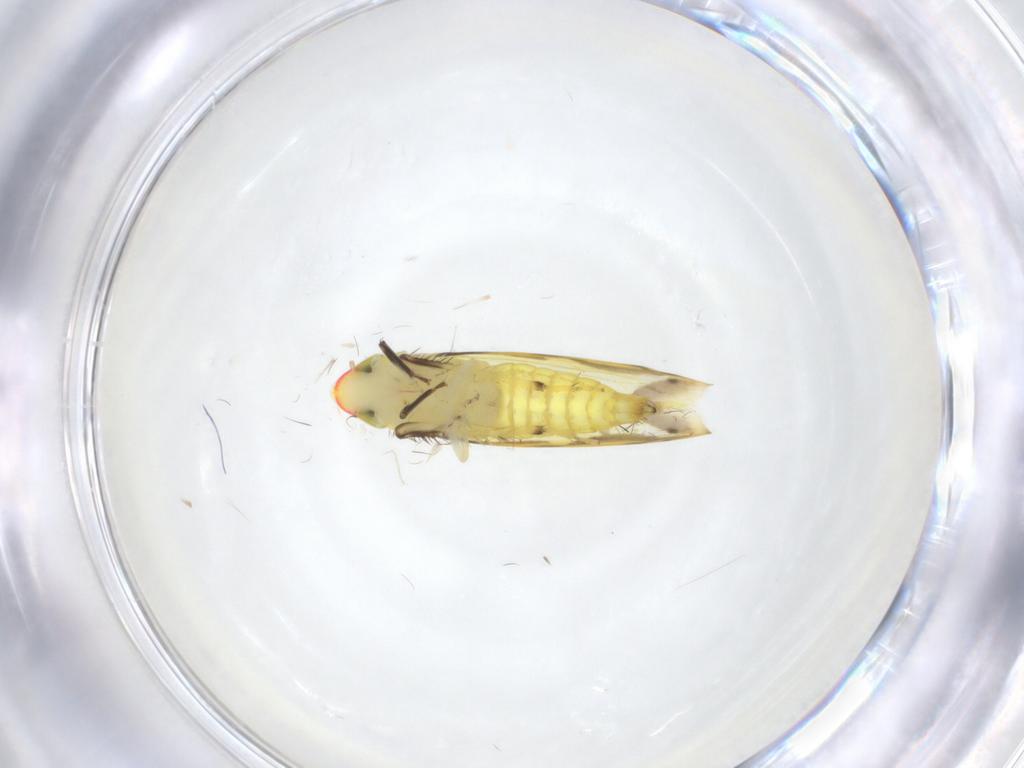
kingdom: Animalia
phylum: Arthropoda
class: Insecta
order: Hemiptera
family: Cicadellidae
